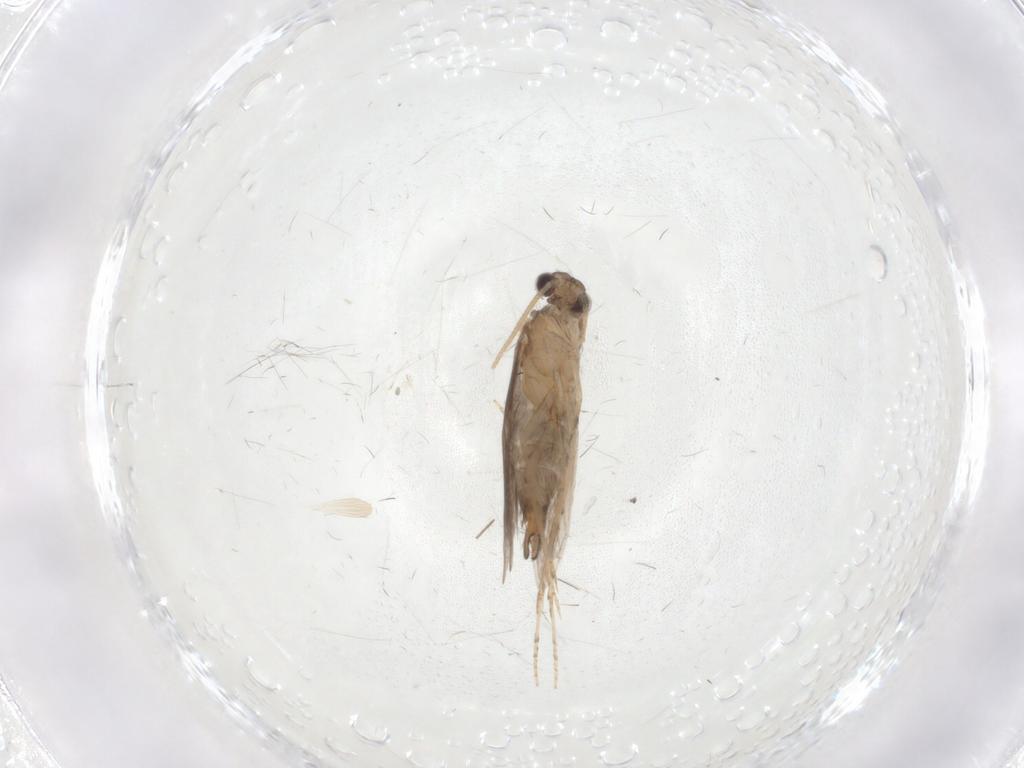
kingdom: Animalia
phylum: Arthropoda
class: Insecta
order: Trichoptera
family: Hydroptilidae
